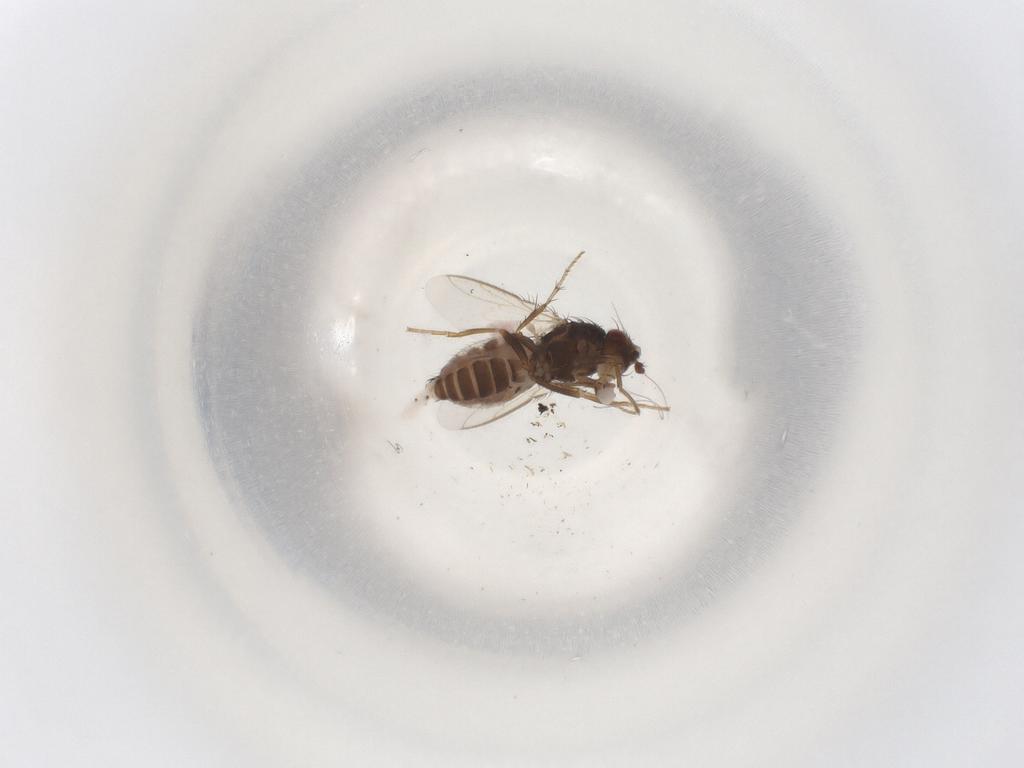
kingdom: Animalia
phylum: Arthropoda
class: Insecta
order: Diptera
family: Sphaeroceridae
